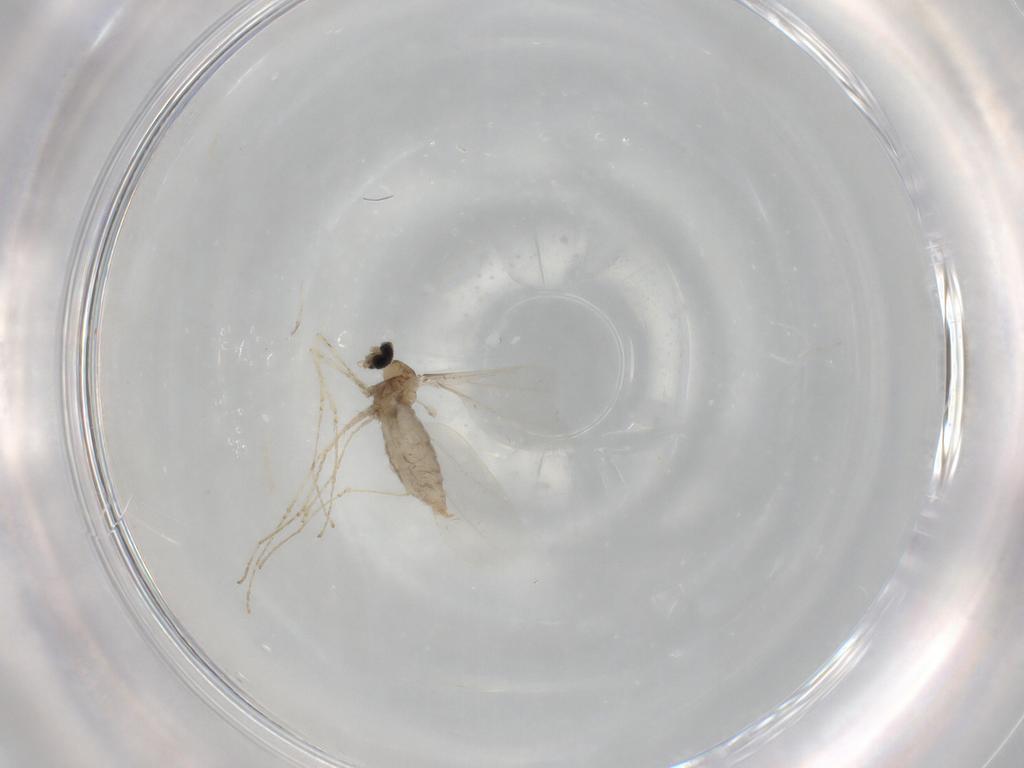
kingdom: Animalia
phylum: Arthropoda
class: Insecta
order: Diptera
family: Cecidomyiidae
